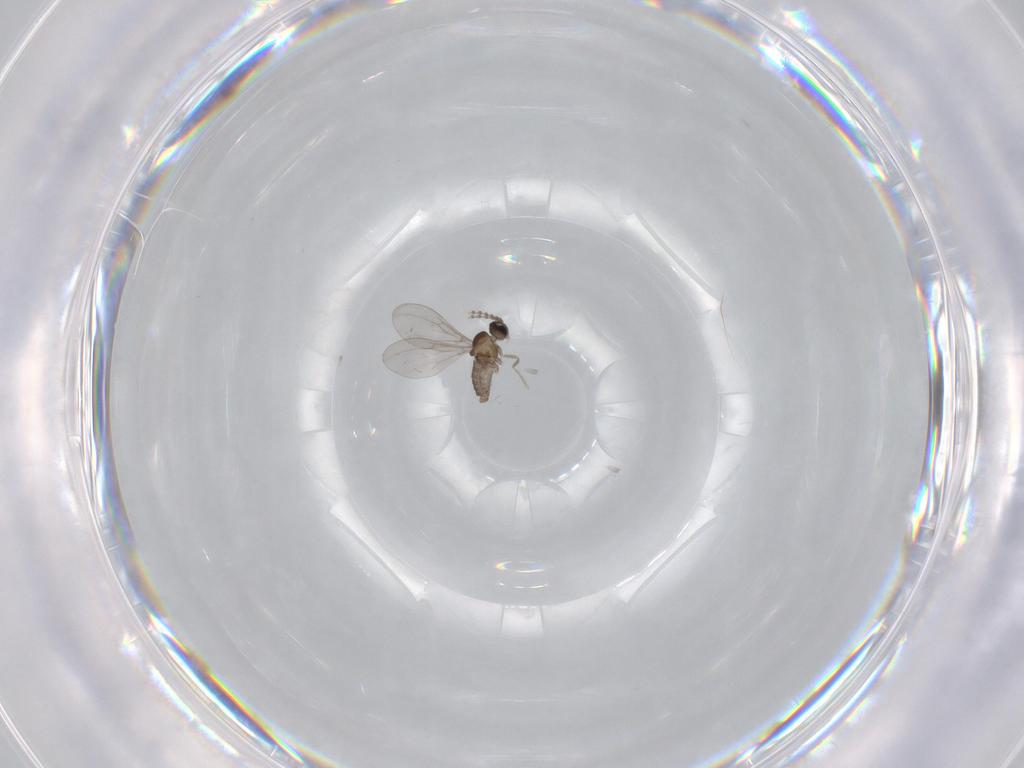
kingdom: Animalia
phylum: Arthropoda
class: Insecta
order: Diptera
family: Cecidomyiidae
